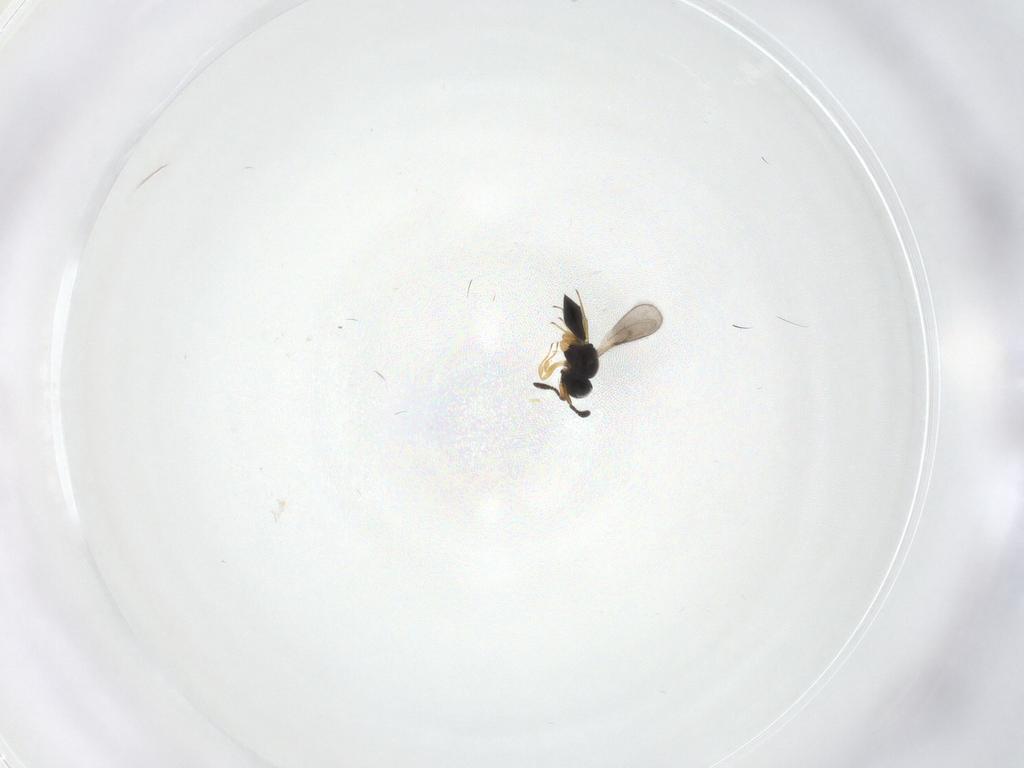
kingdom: Animalia
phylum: Arthropoda
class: Insecta
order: Hymenoptera
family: Scelionidae
